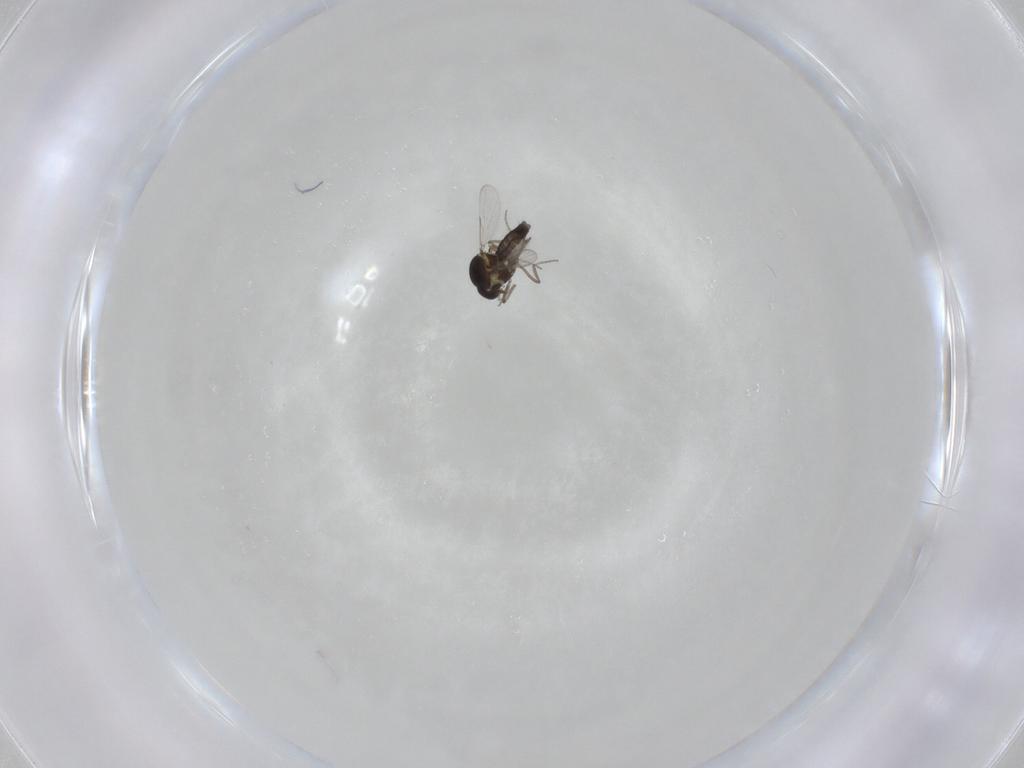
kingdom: Animalia
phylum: Arthropoda
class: Insecta
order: Diptera
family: Ceratopogonidae
